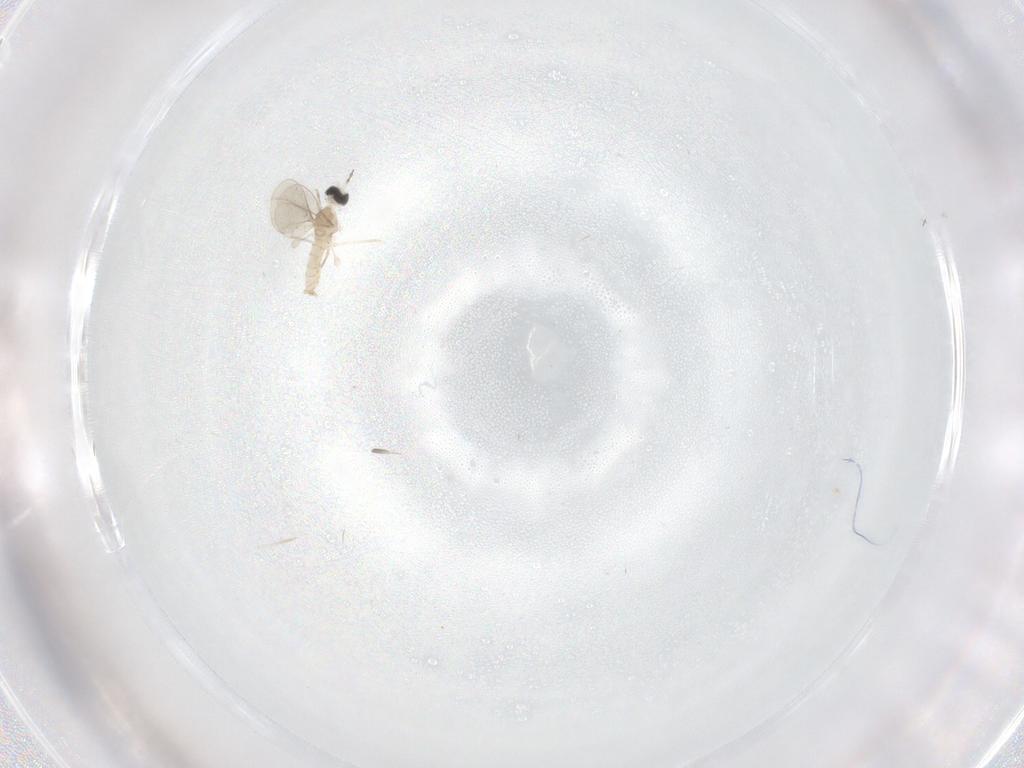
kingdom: Animalia
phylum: Arthropoda
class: Insecta
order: Diptera
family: Cecidomyiidae
